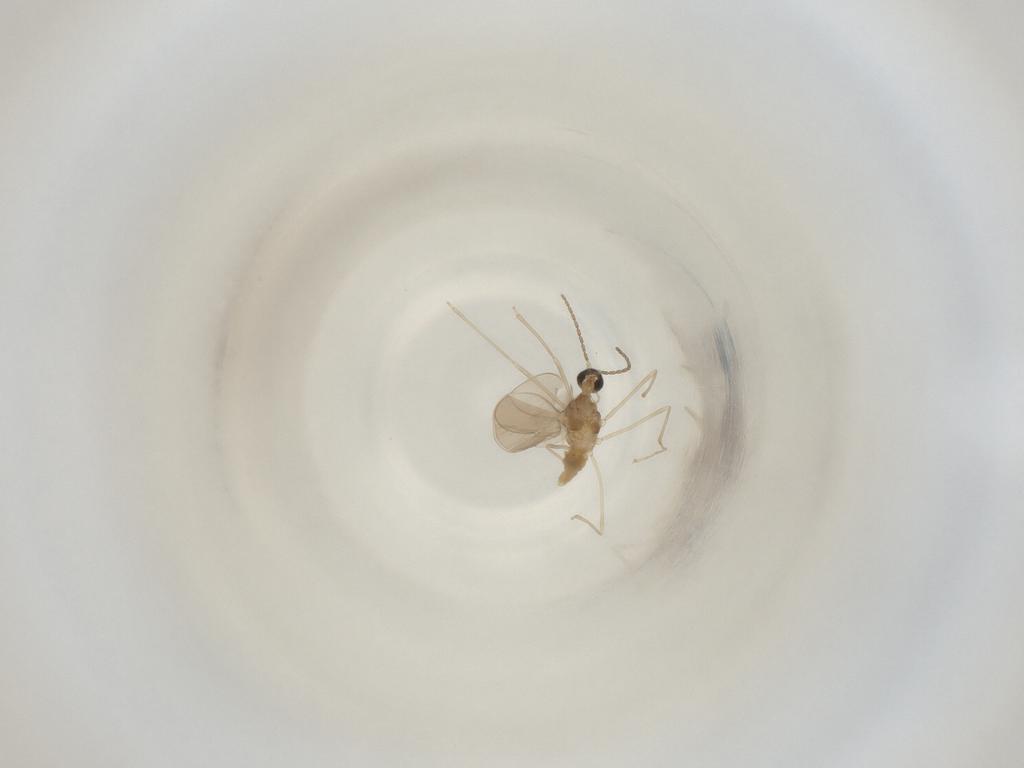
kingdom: Animalia
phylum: Arthropoda
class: Insecta
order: Diptera
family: Cecidomyiidae
